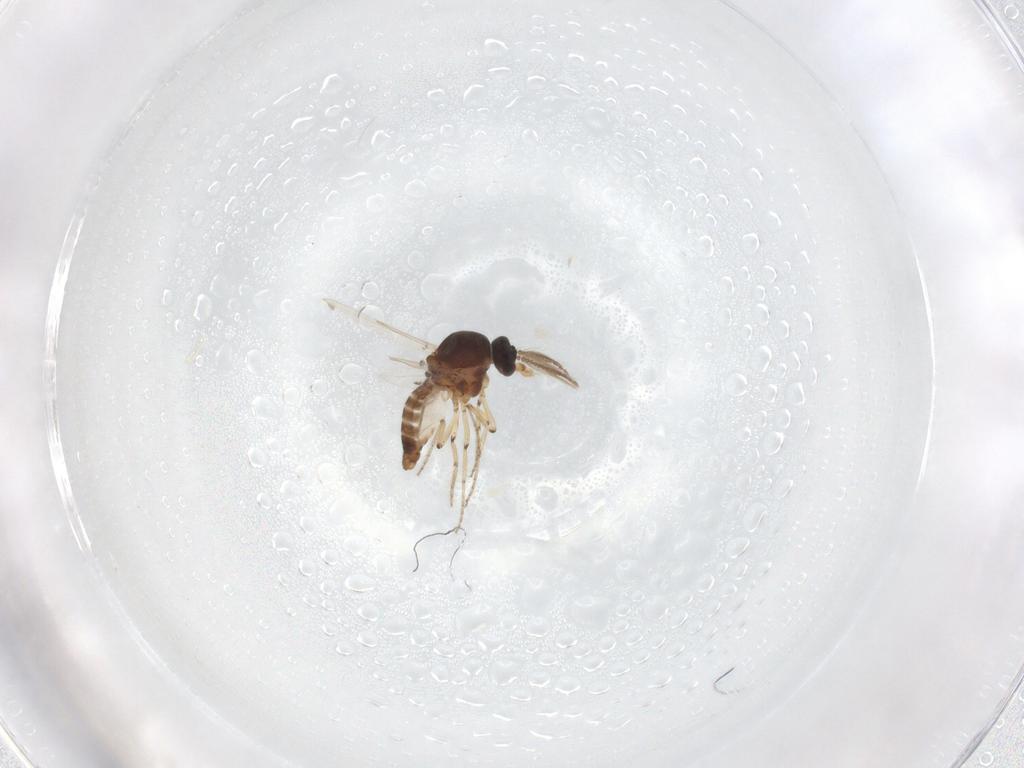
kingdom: Animalia
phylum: Arthropoda
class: Insecta
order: Diptera
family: Ceratopogonidae
